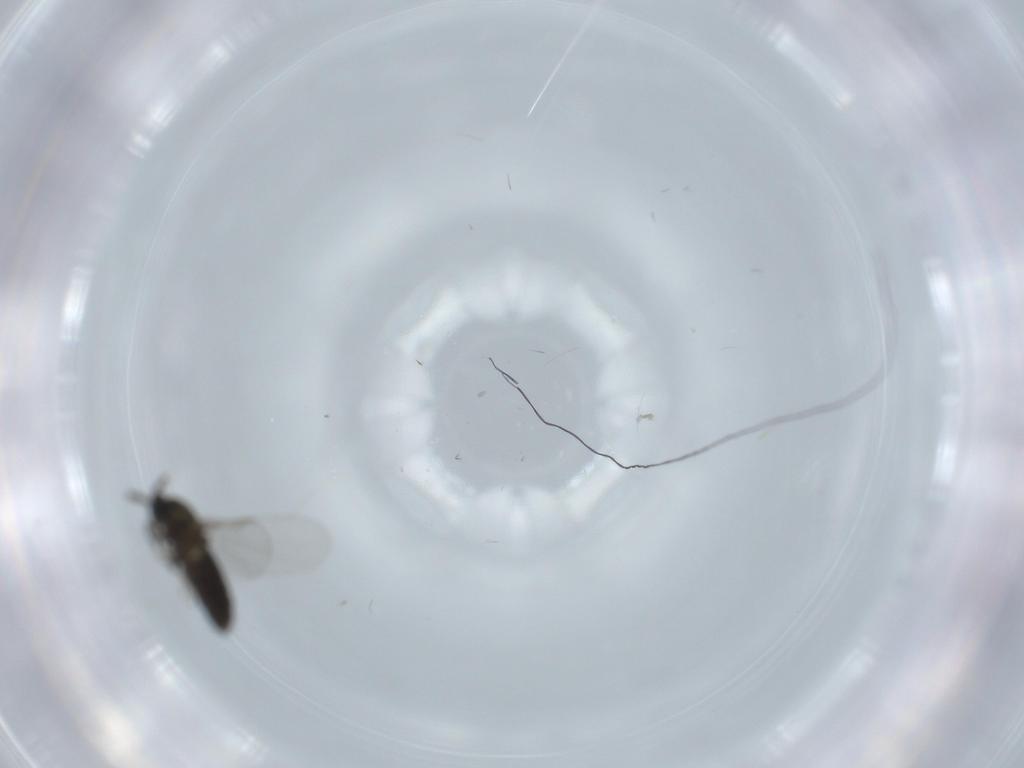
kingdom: Animalia
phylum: Arthropoda
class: Insecta
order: Diptera
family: Scatopsidae
